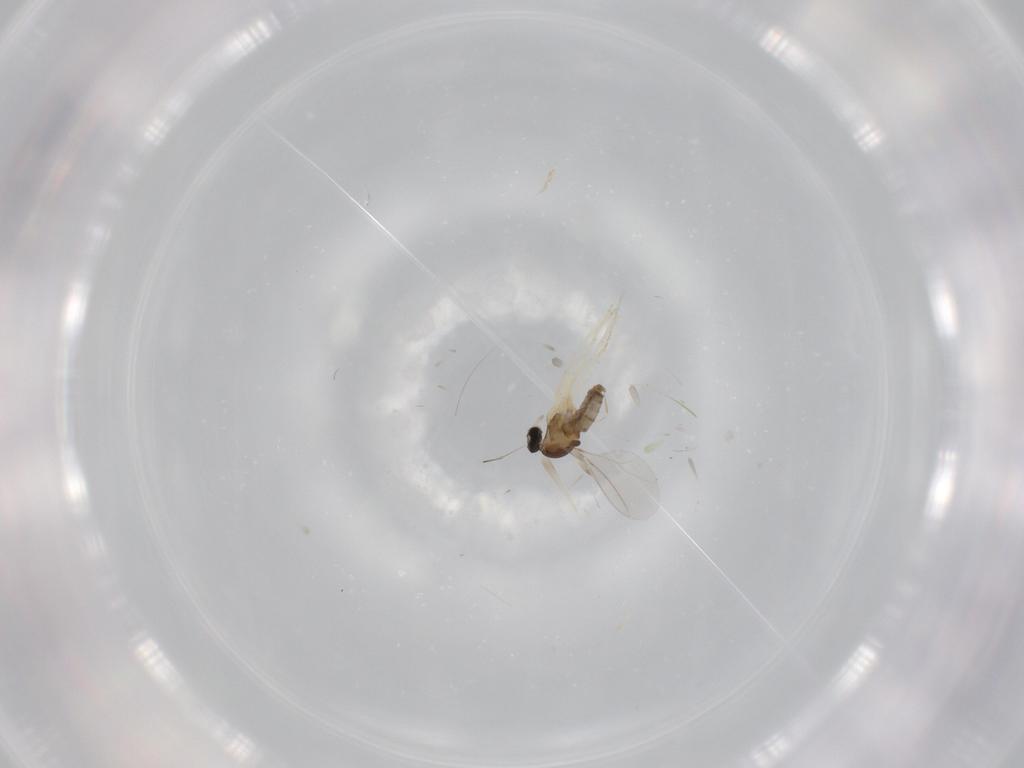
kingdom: Animalia
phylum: Arthropoda
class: Insecta
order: Diptera
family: Cecidomyiidae
